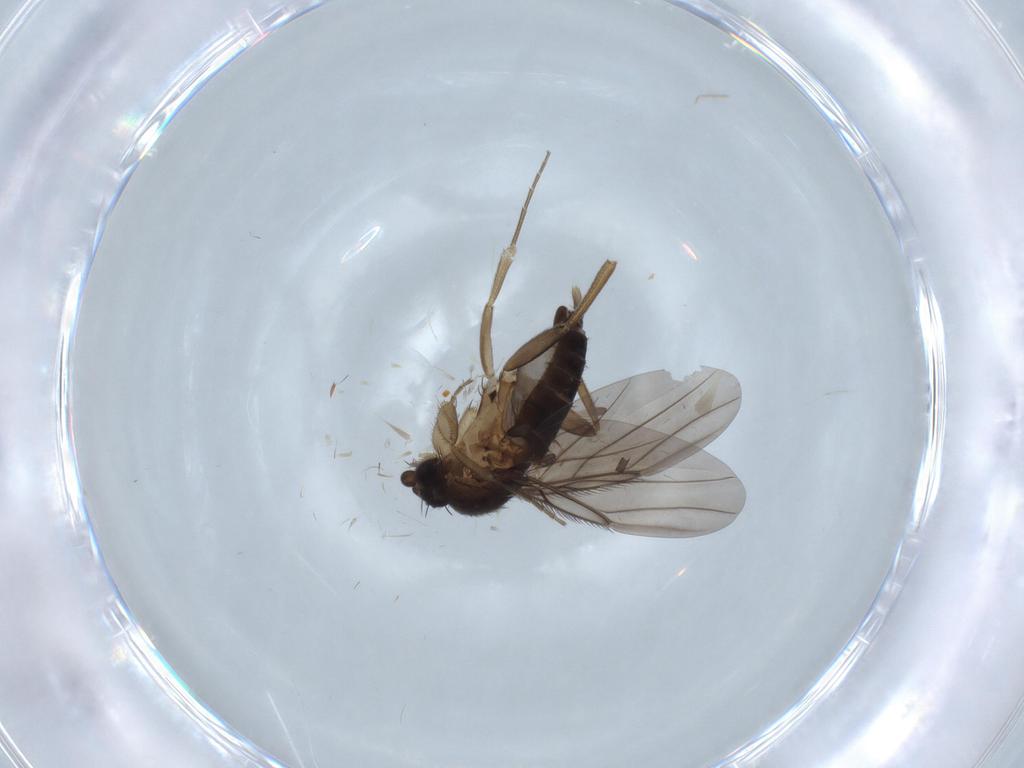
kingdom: Animalia
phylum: Arthropoda
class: Insecta
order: Diptera
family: Phoridae
